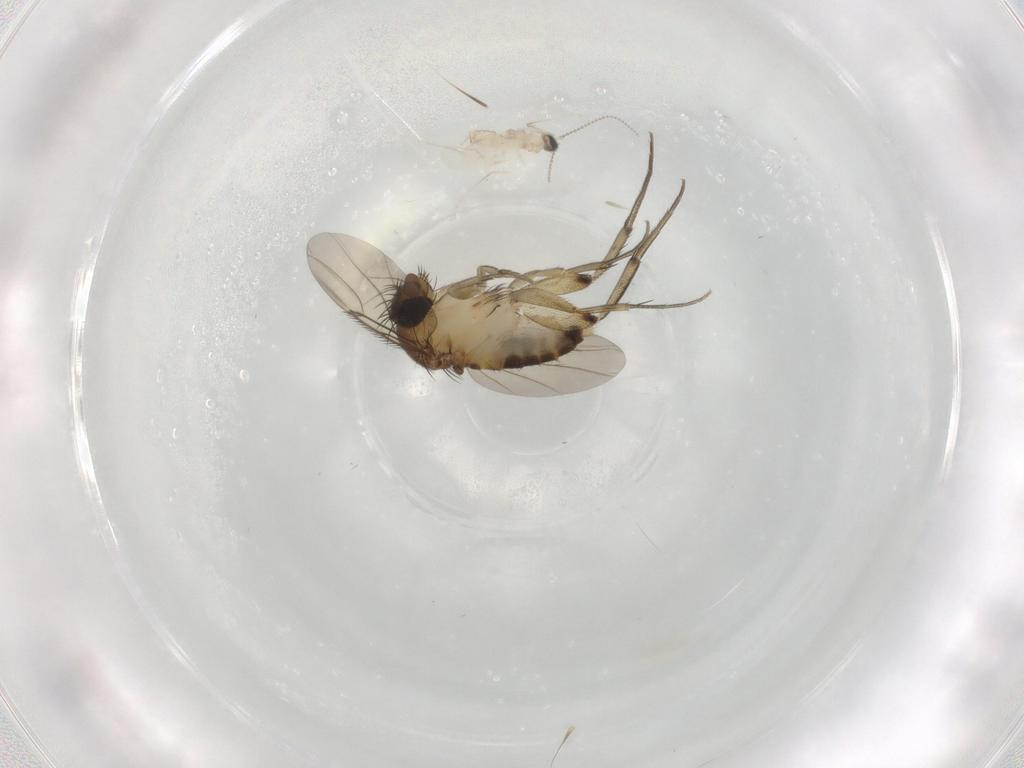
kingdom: Animalia
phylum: Arthropoda
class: Insecta
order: Diptera
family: Phoridae
